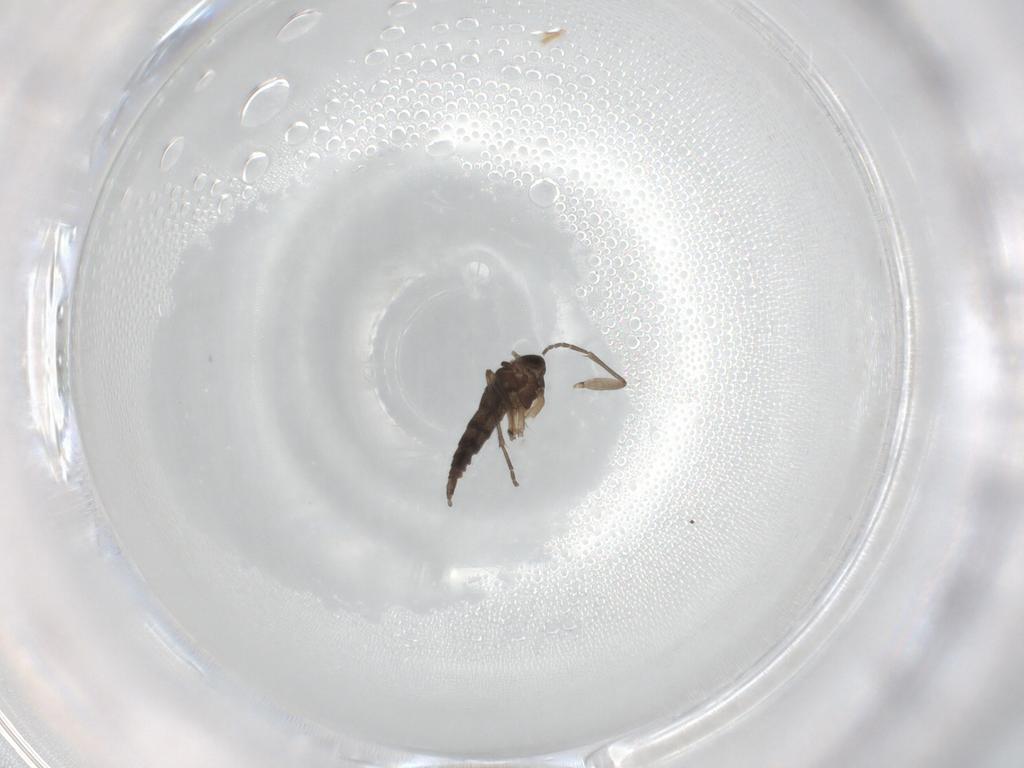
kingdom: Animalia
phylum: Arthropoda
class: Insecta
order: Diptera
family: Sciaridae
